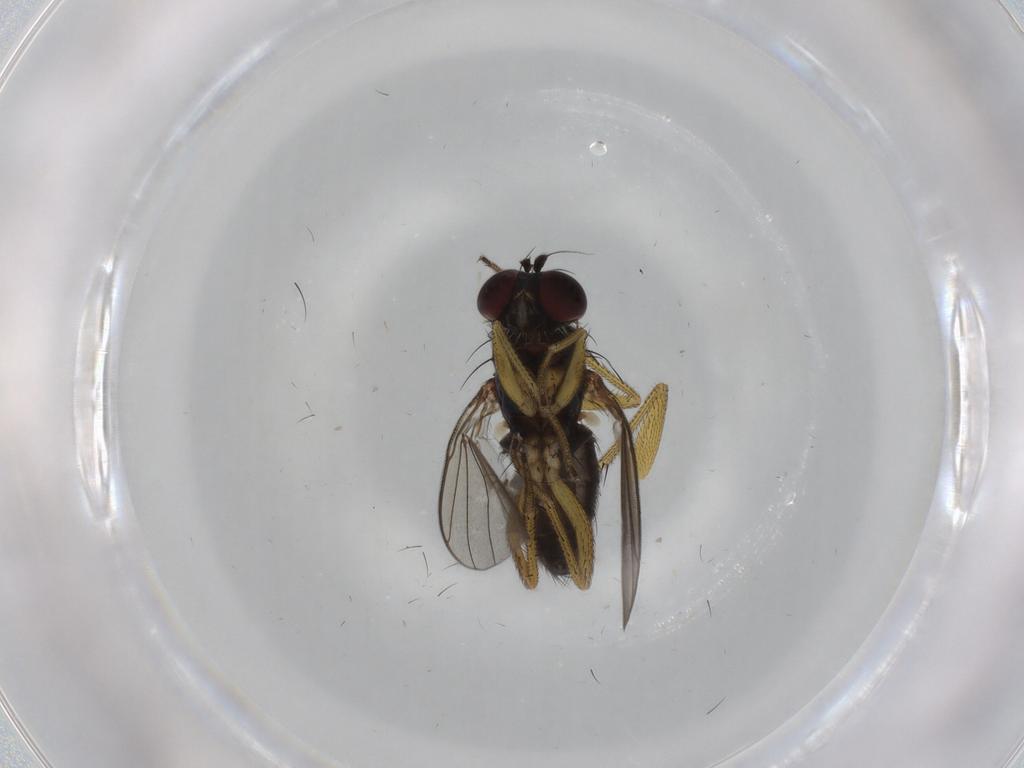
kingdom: Animalia
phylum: Arthropoda
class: Insecta
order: Diptera
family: Dolichopodidae
